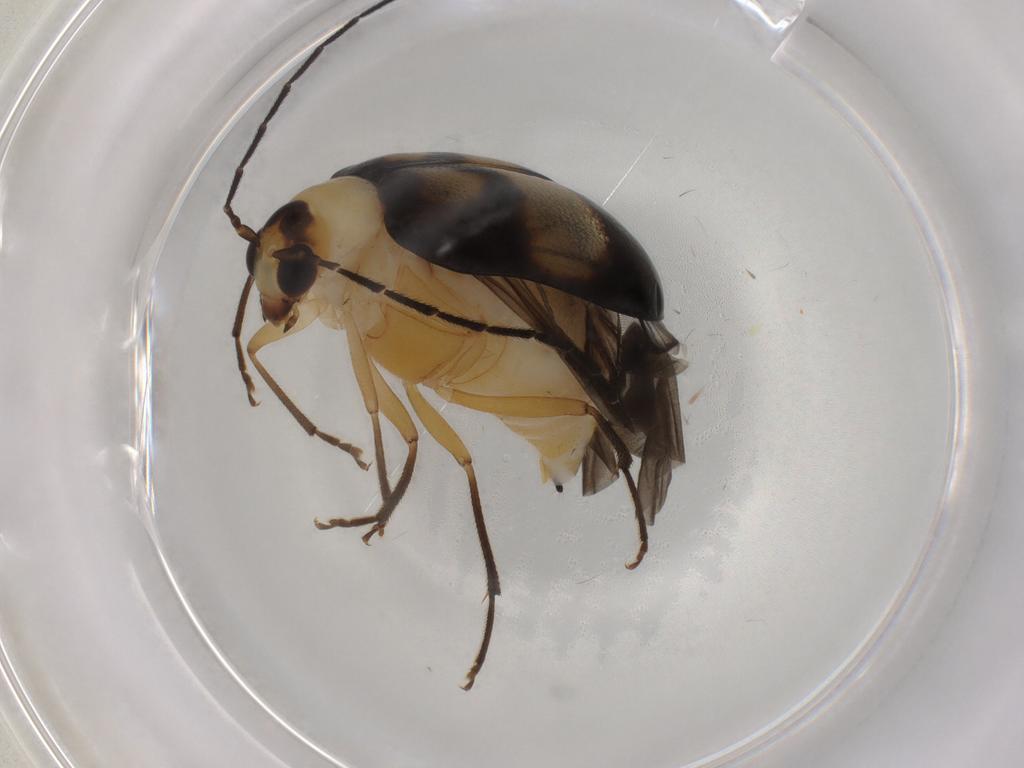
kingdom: Animalia
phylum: Arthropoda
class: Insecta
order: Coleoptera
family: Chrysomelidae
